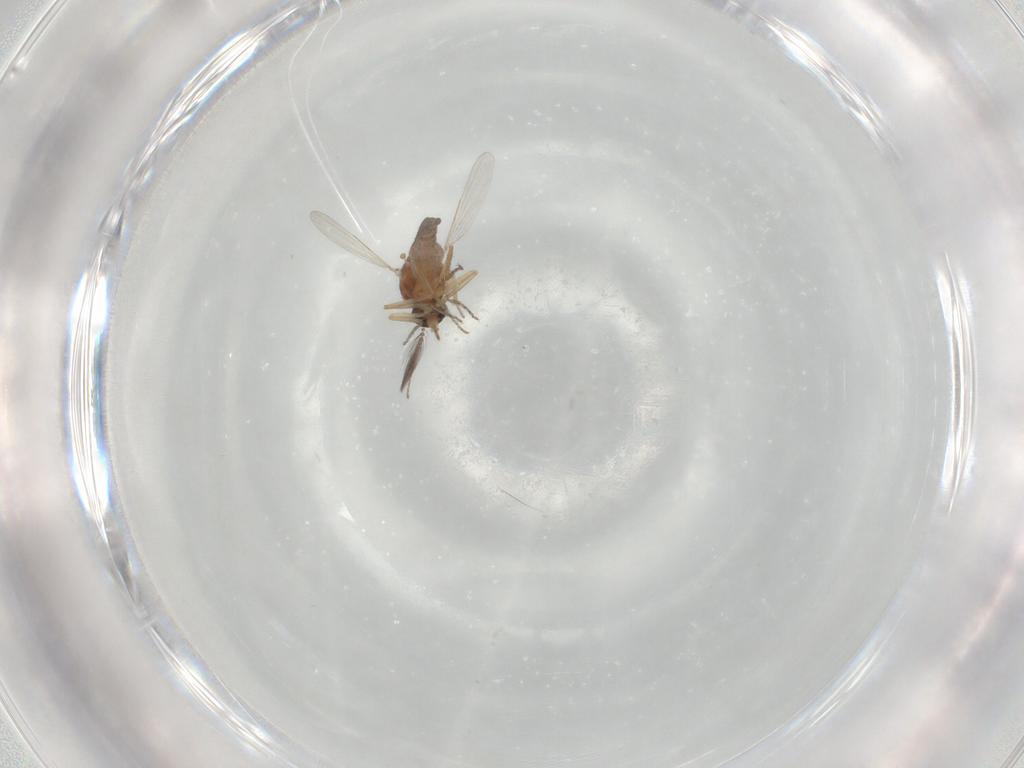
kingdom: Animalia
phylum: Arthropoda
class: Insecta
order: Diptera
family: Ceratopogonidae
